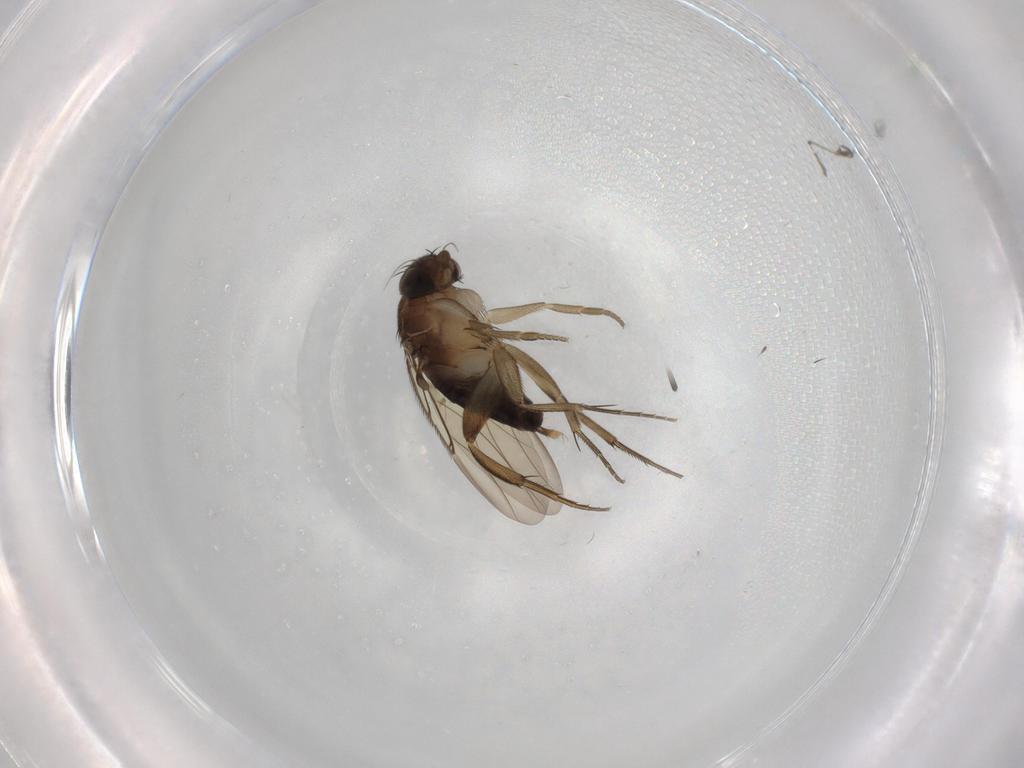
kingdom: Animalia
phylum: Arthropoda
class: Insecta
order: Diptera
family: Phoridae
